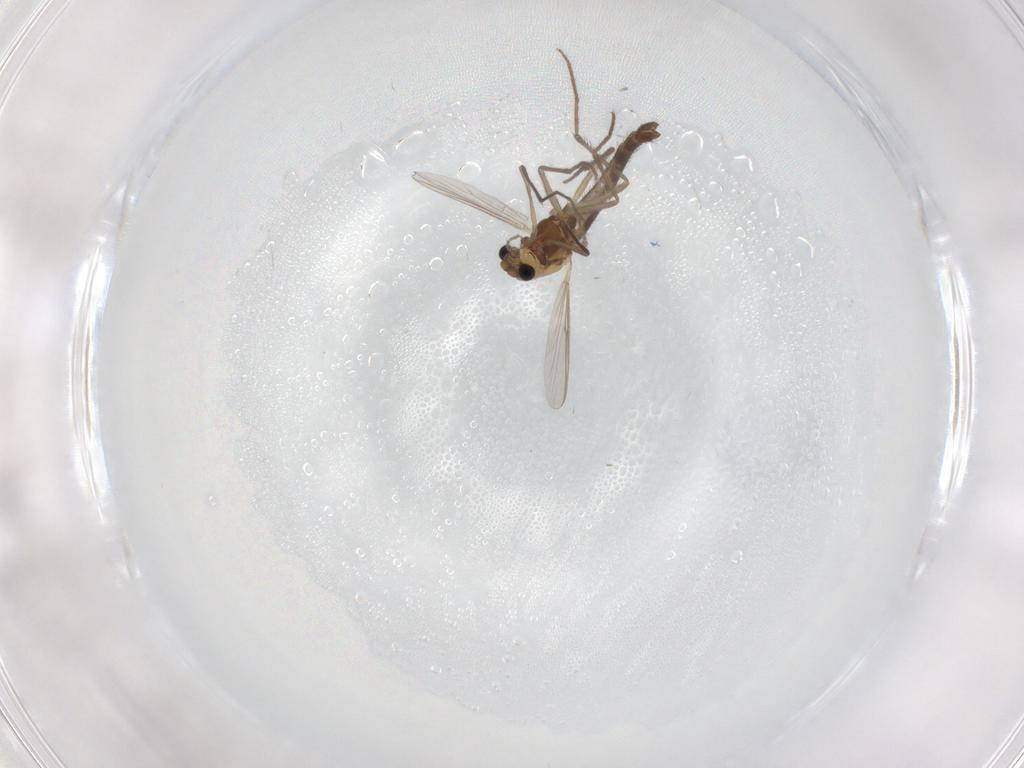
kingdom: Animalia
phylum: Arthropoda
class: Insecta
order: Diptera
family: Chironomidae
